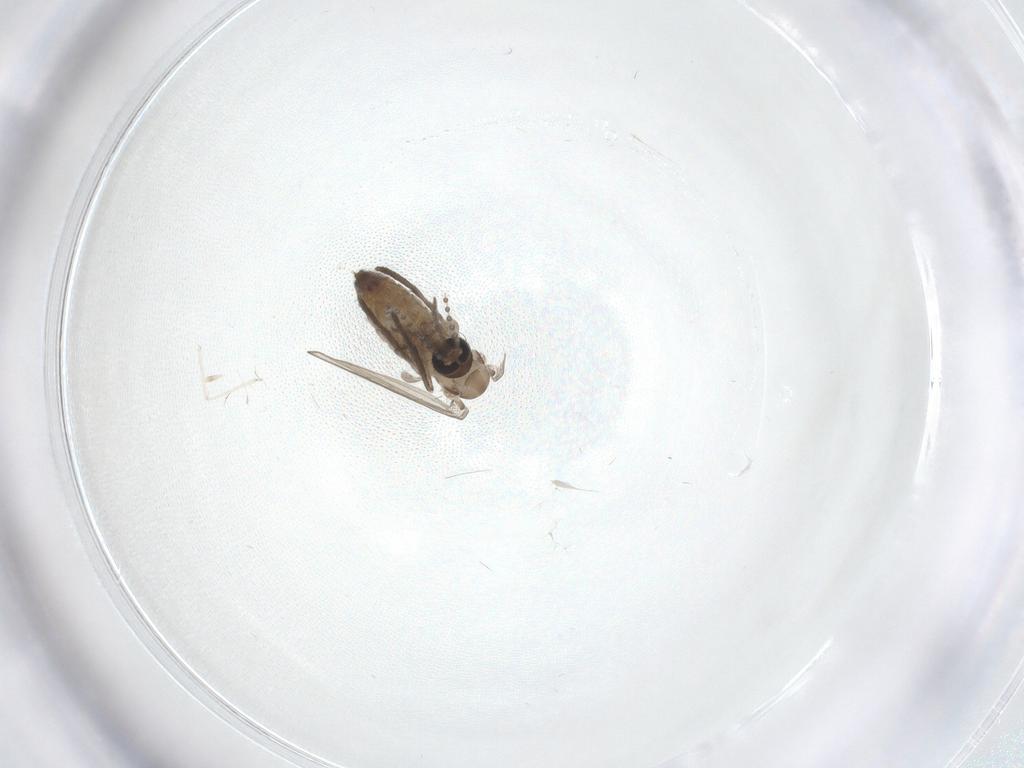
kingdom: Animalia
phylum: Arthropoda
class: Insecta
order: Diptera
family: Psychodidae
